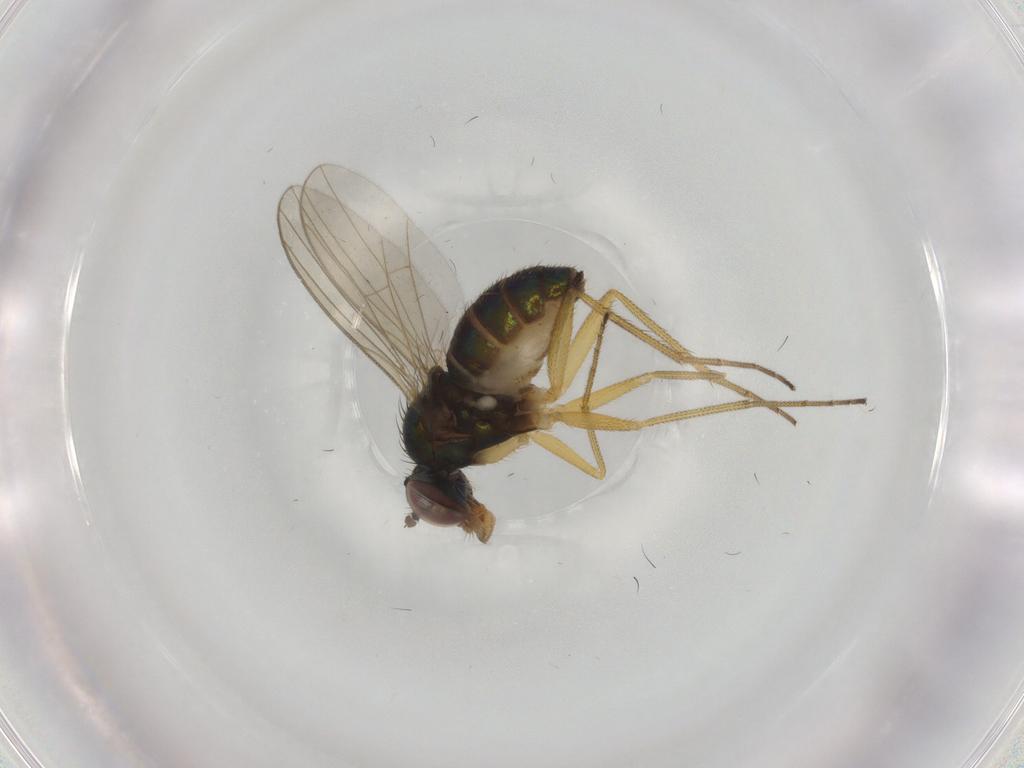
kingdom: Animalia
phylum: Arthropoda
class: Insecta
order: Diptera
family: Dolichopodidae
